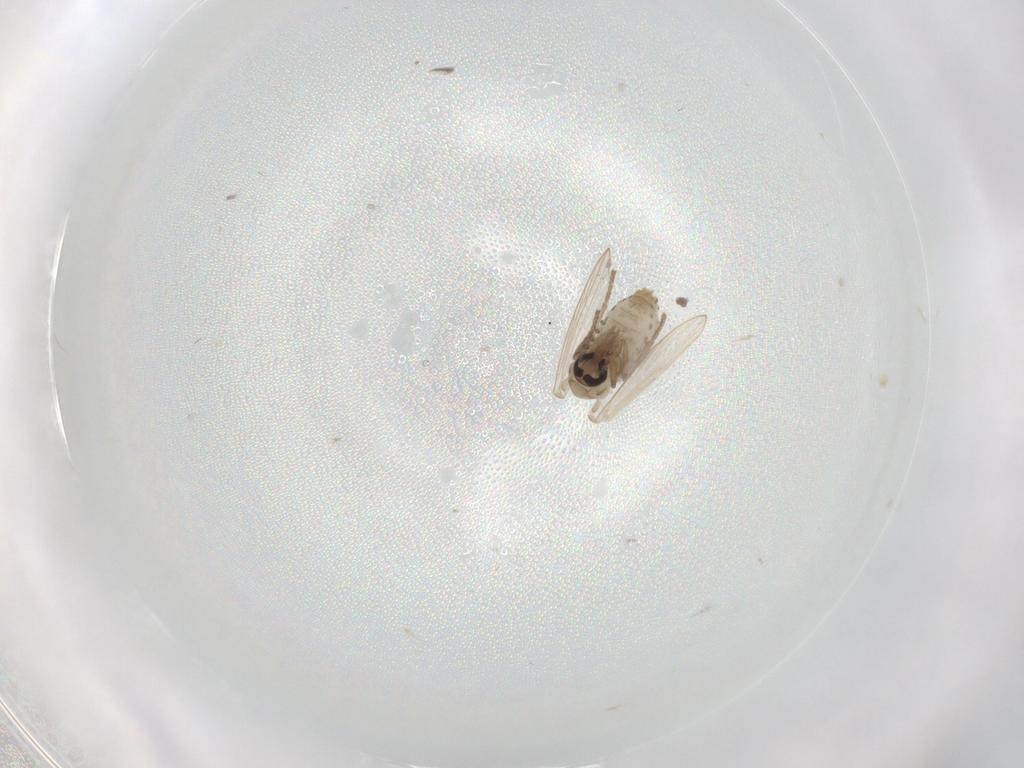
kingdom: Animalia
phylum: Arthropoda
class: Insecta
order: Diptera
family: Psychodidae
